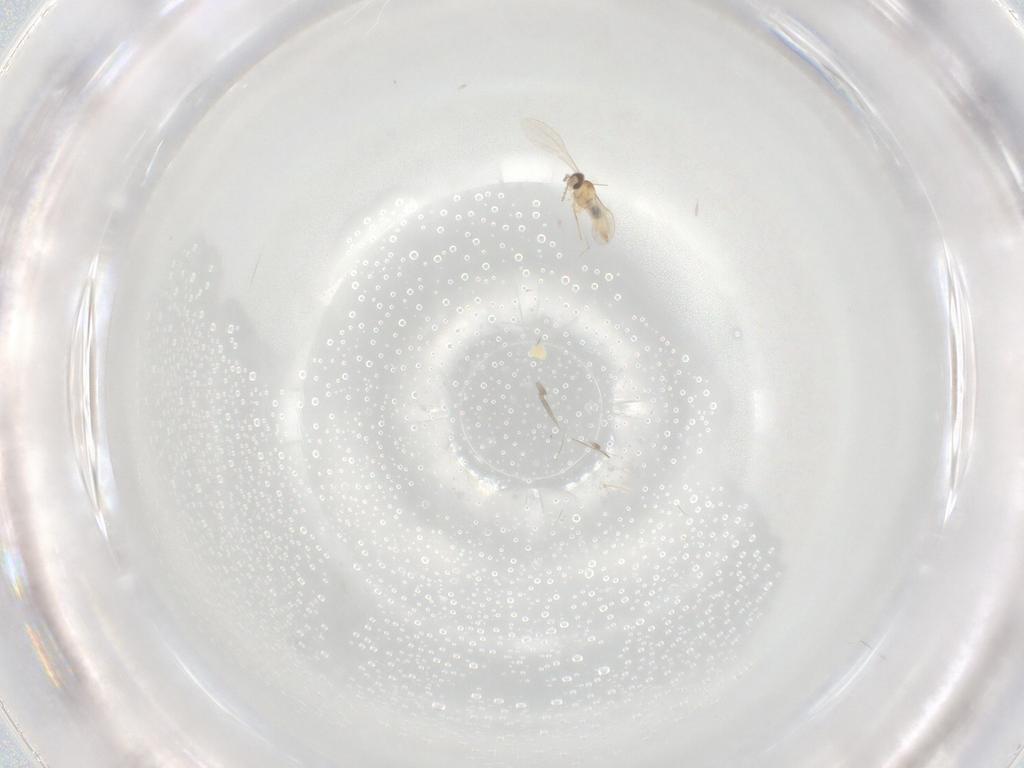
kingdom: Animalia
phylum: Arthropoda
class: Insecta
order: Diptera
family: Cecidomyiidae
